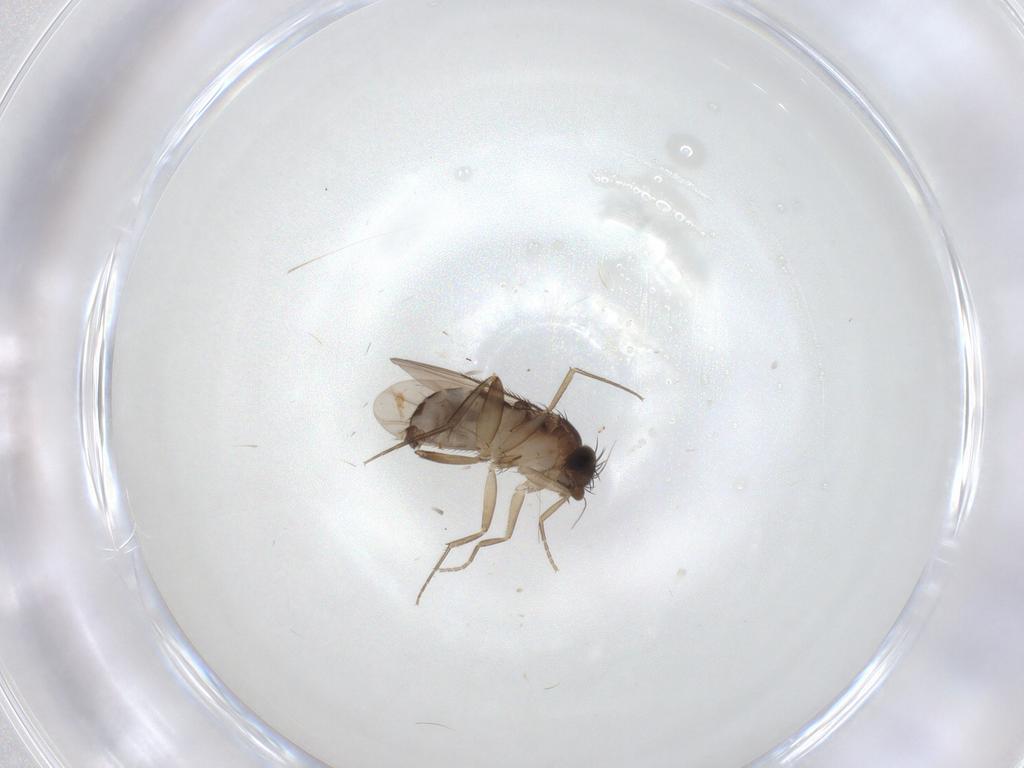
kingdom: Animalia
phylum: Arthropoda
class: Insecta
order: Diptera
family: Phoridae
